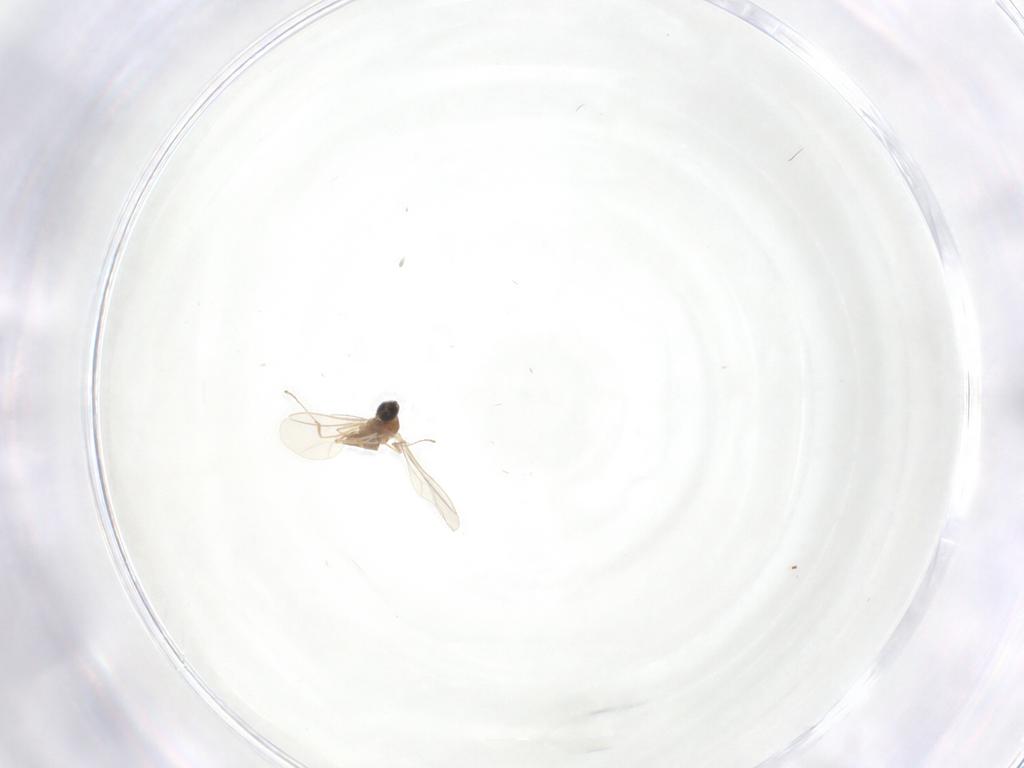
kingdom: Animalia
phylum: Arthropoda
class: Insecta
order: Diptera
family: Cecidomyiidae
